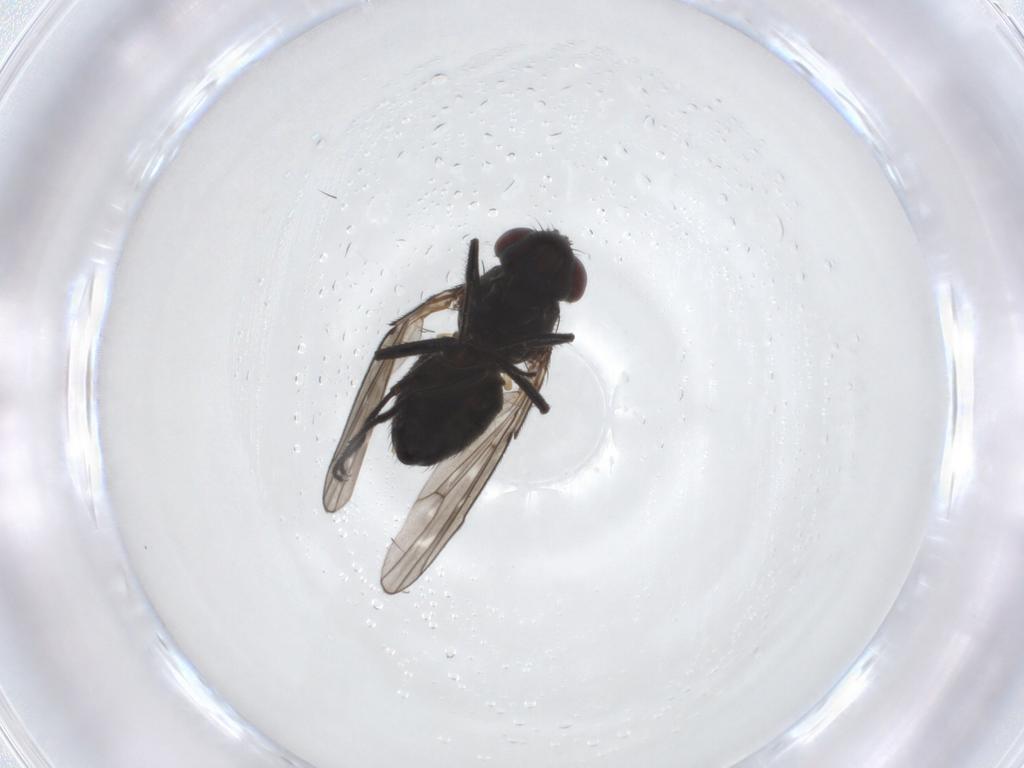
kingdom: Animalia
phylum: Arthropoda
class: Insecta
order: Diptera
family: Ephydridae
